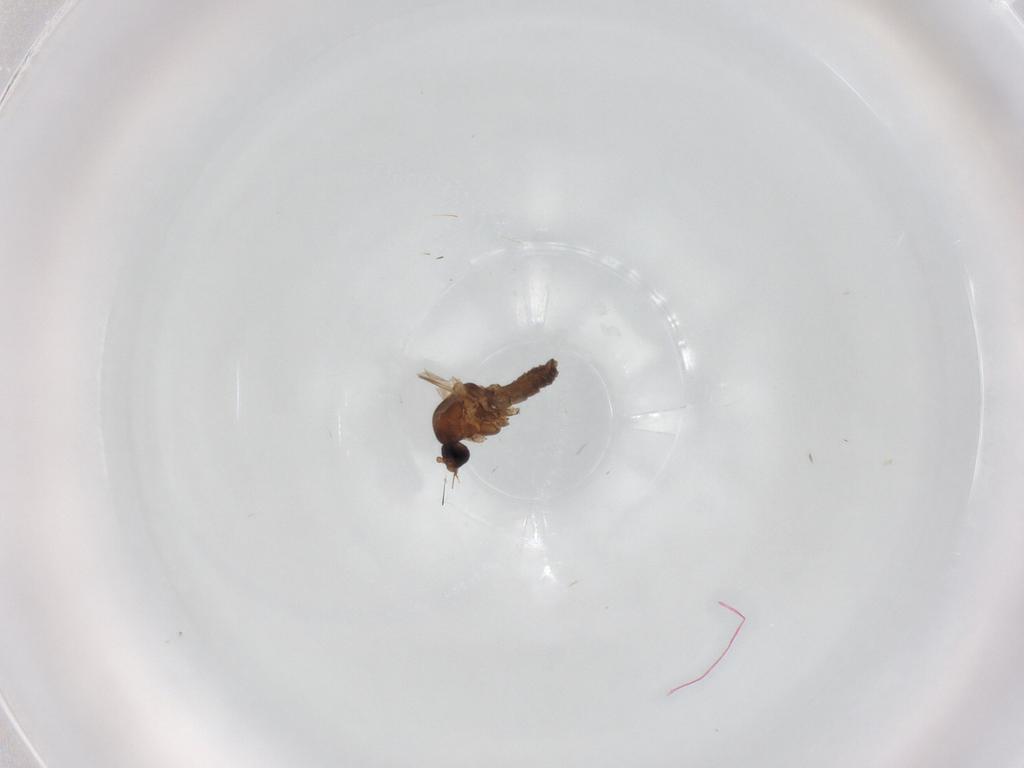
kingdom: Animalia
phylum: Arthropoda
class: Insecta
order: Diptera
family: Ceratopogonidae
